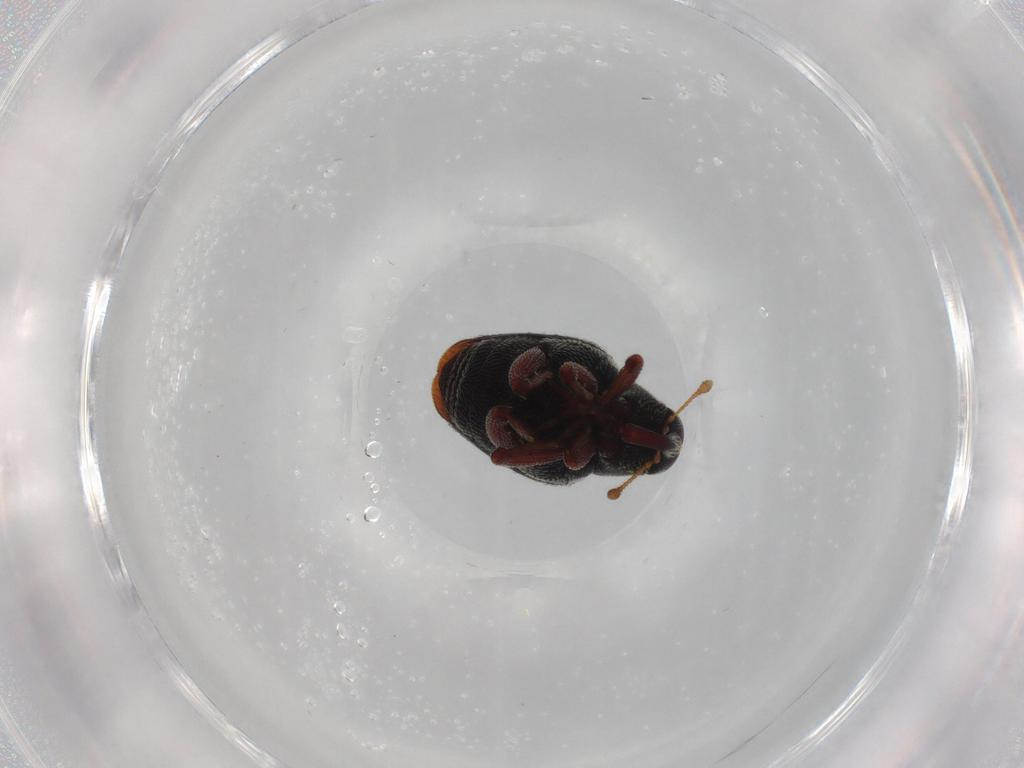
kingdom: Animalia
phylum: Arthropoda
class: Insecta
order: Coleoptera
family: Curculionidae
